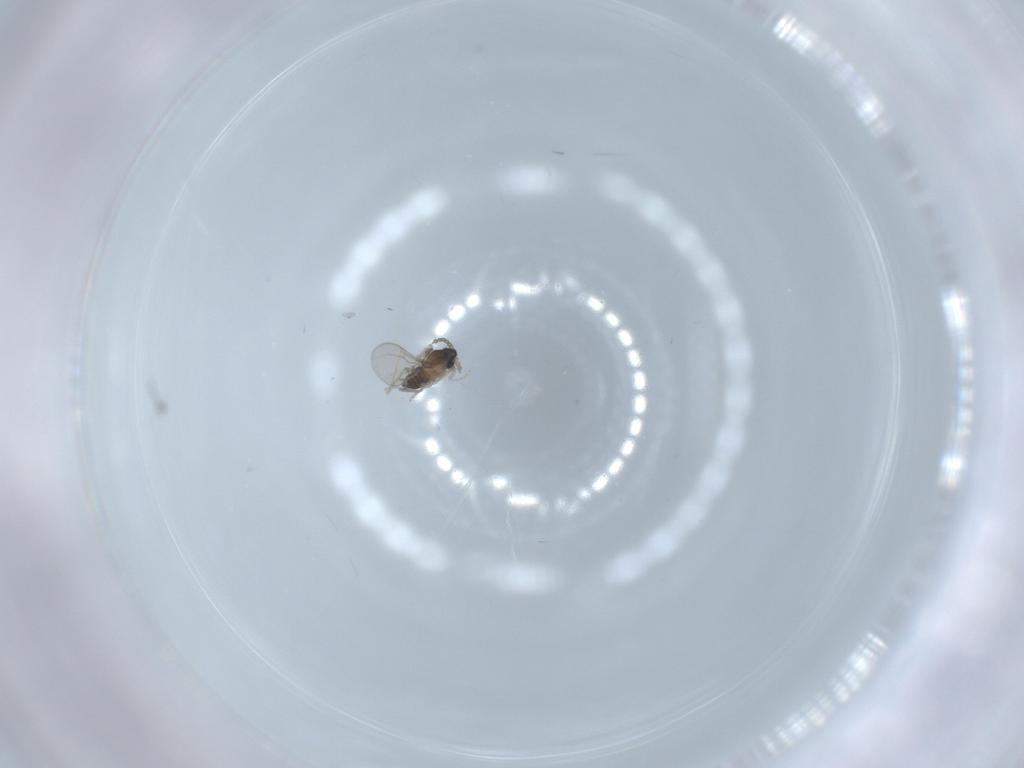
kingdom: Animalia
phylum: Arthropoda
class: Insecta
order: Diptera
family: Cecidomyiidae
